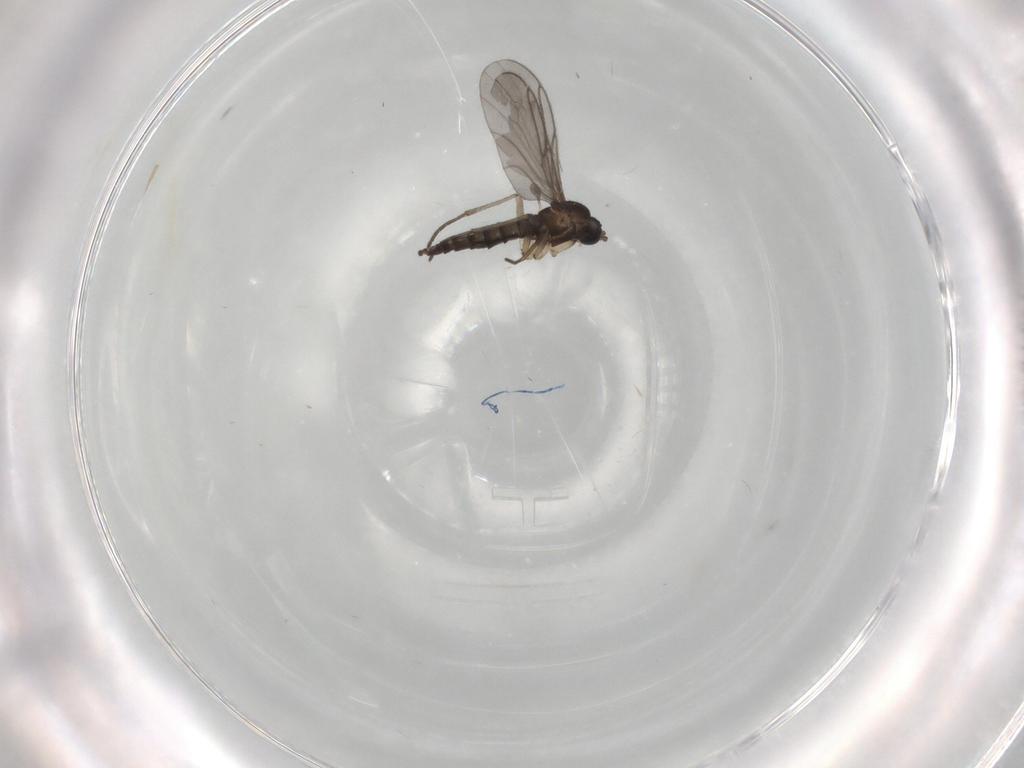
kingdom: Animalia
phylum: Arthropoda
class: Insecta
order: Diptera
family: Sciaridae
